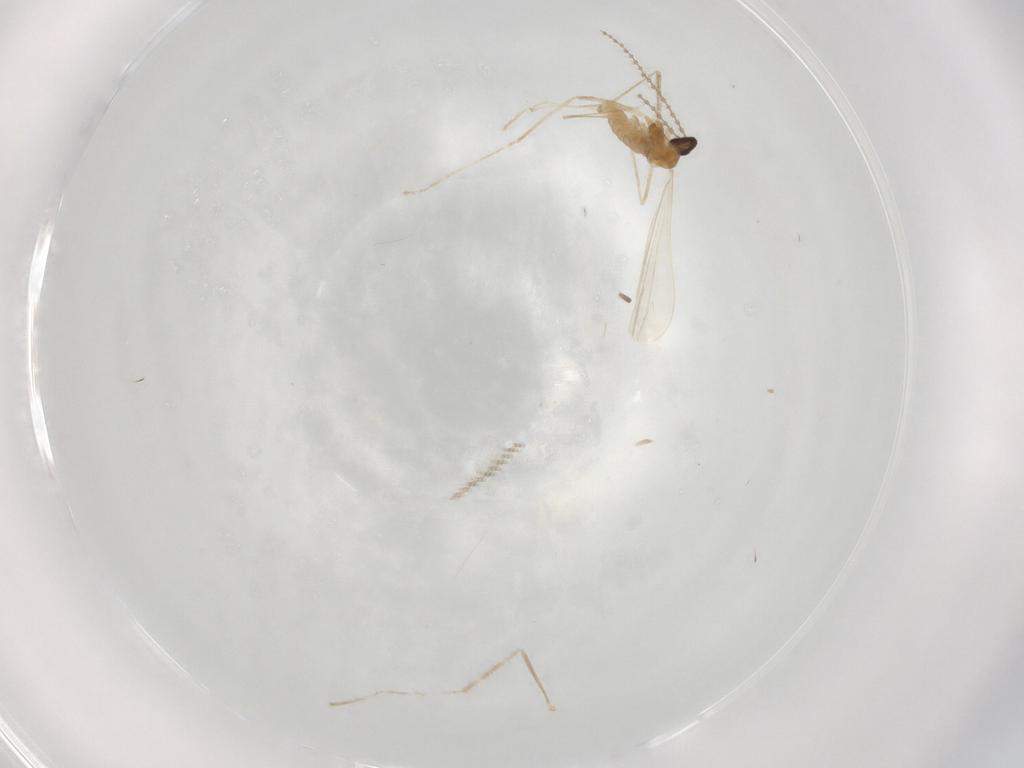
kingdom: Animalia
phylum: Arthropoda
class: Insecta
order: Diptera
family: Cecidomyiidae
